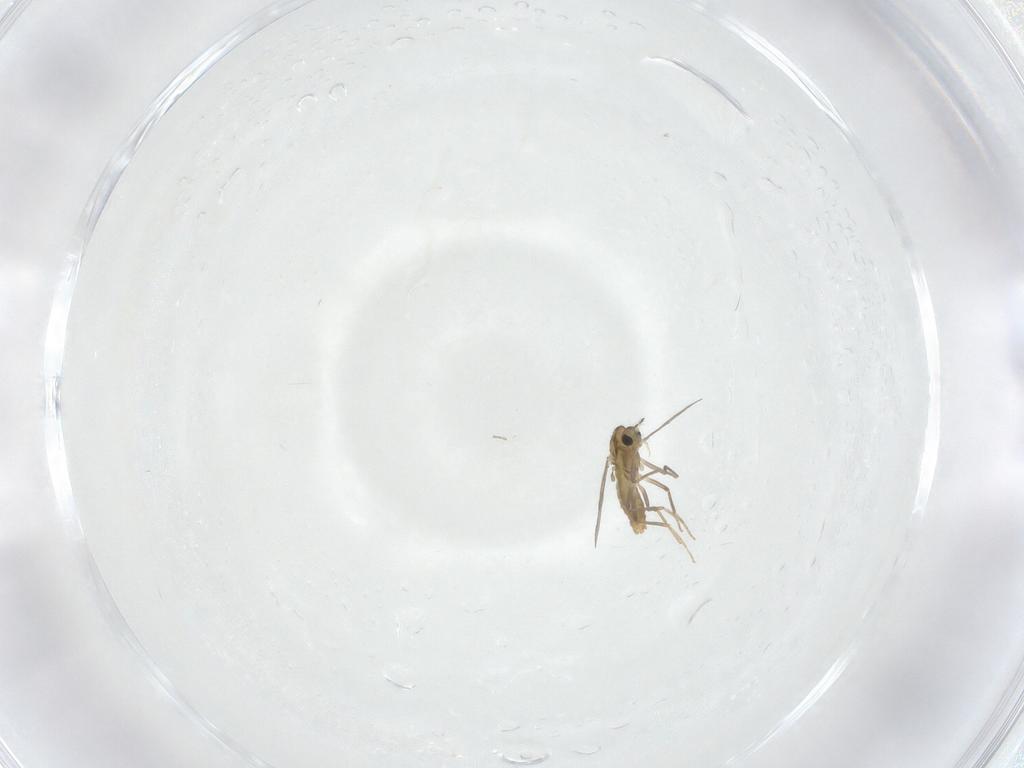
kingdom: Animalia
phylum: Arthropoda
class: Insecta
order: Diptera
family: Chironomidae
